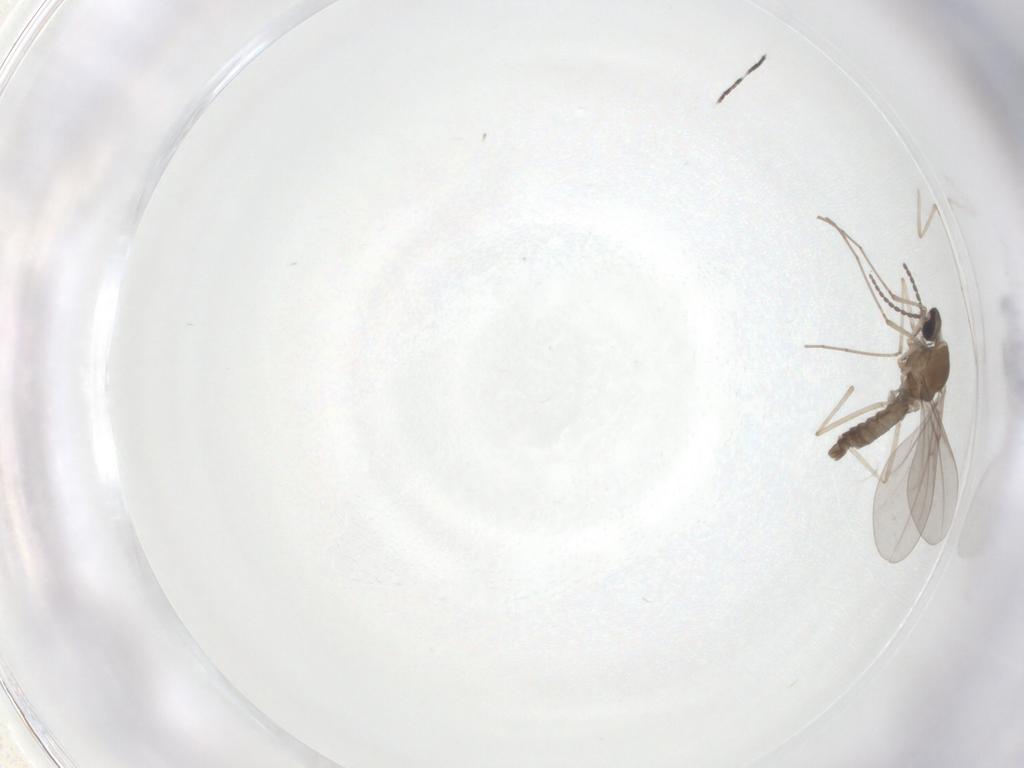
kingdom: Animalia
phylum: Arthropoda
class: Insecta
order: Diptera
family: Cecidomyiidae
